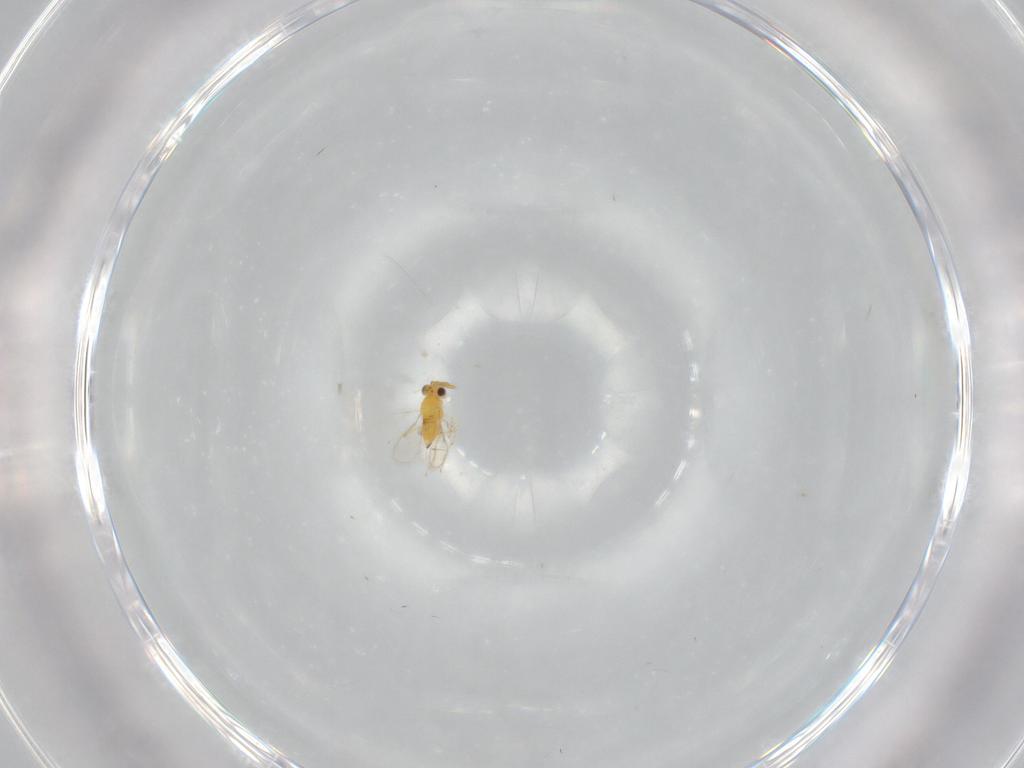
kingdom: Animalia
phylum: Arthropoda
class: Insecta
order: Hymenoptera
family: Aphelinidae
